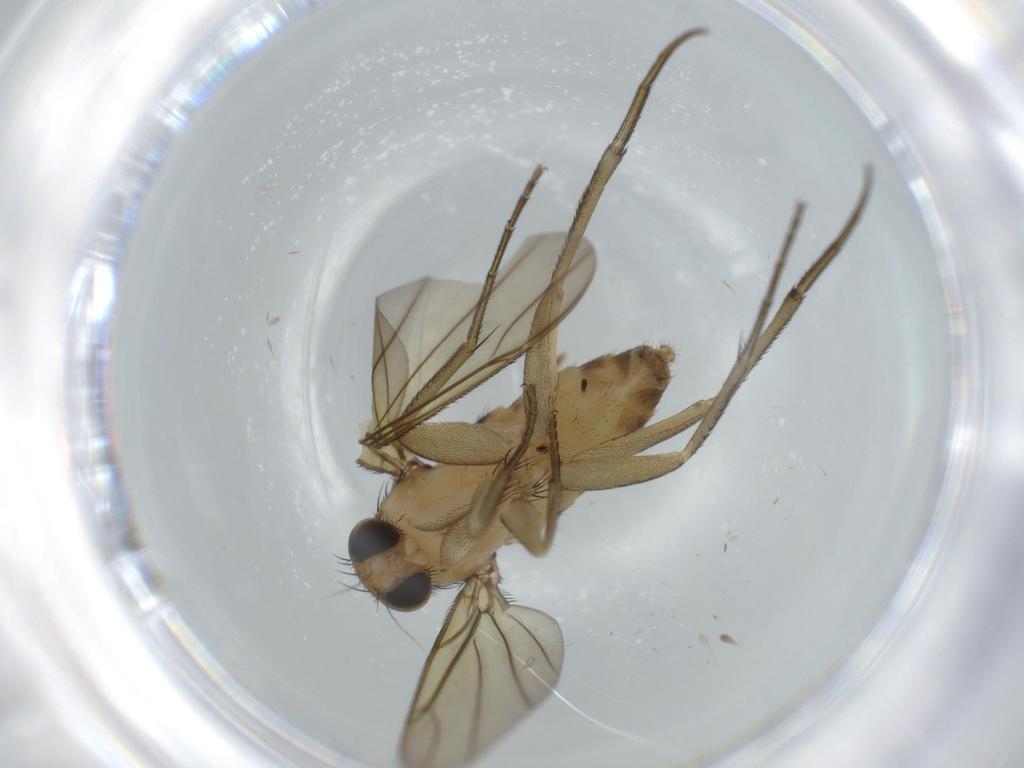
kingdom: Animalia
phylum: Arthropoda
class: Insecta
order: Diptera
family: Phoridae
